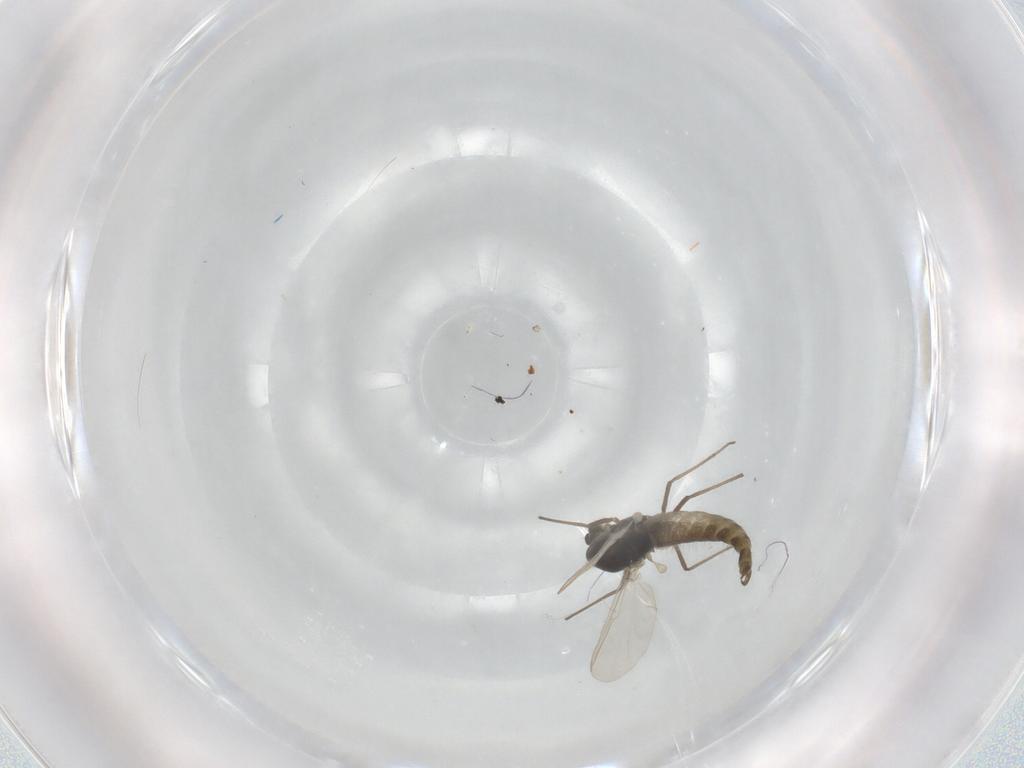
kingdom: Animalia
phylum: Arthropoda
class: Insecta
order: Diptera
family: Chironomidae
